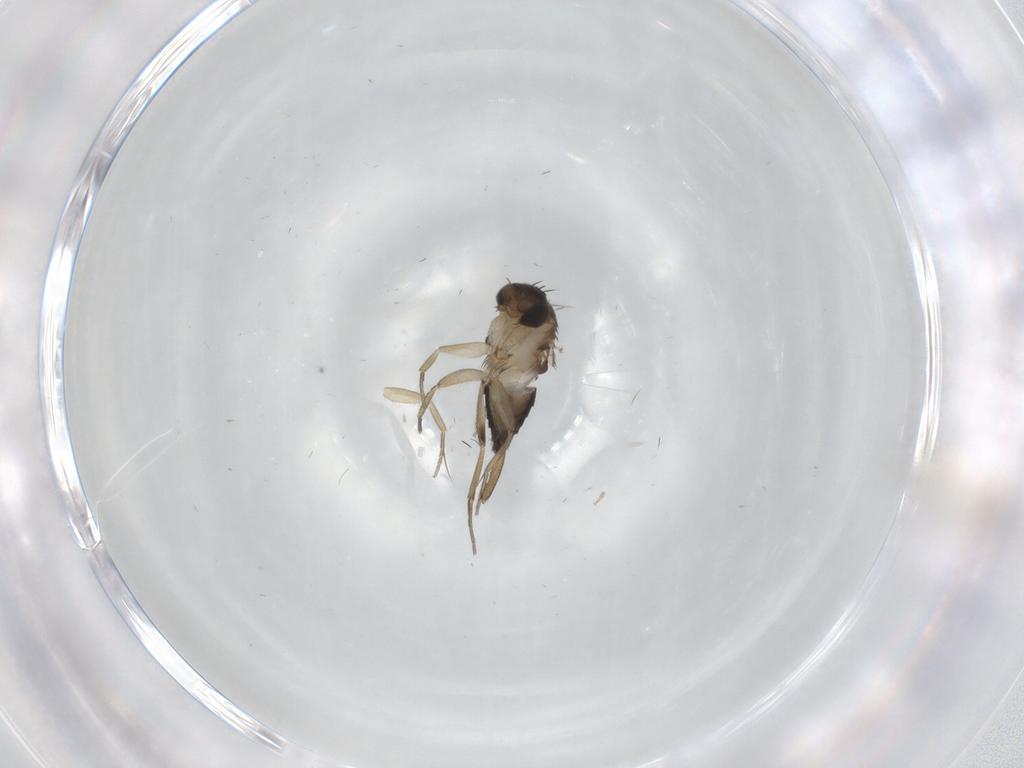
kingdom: Animalia
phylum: Arthropoda
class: Insecta
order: Diptera
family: Phoridae
